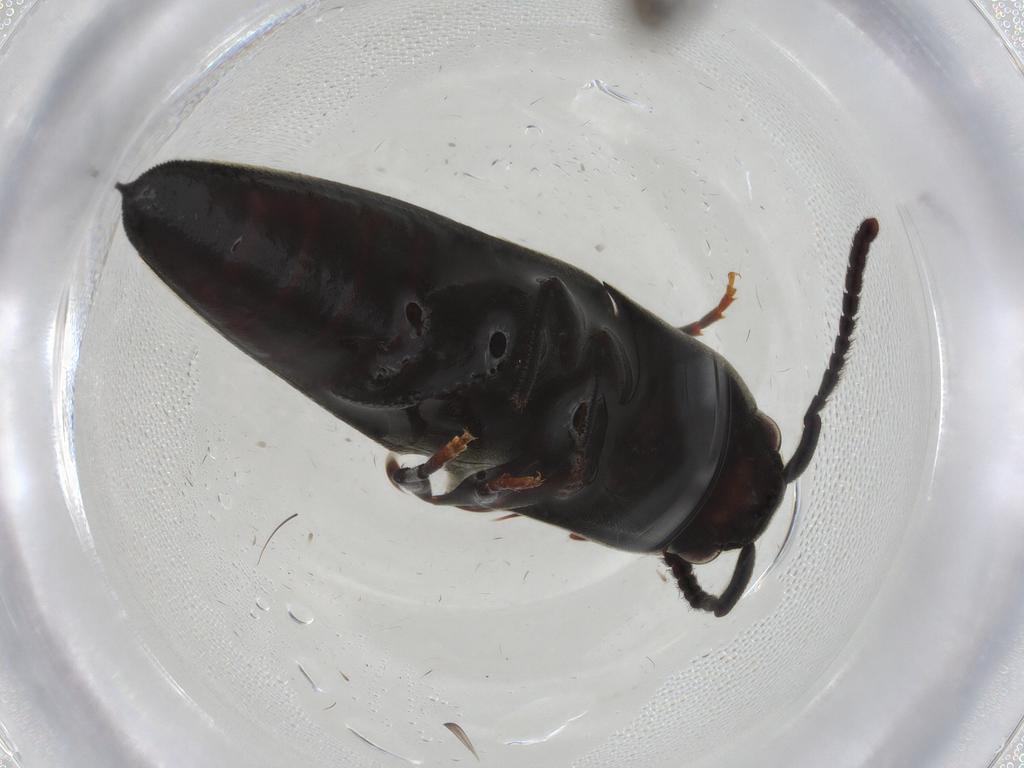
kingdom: Animalia
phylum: Arthropoda
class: Insecta
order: Coleoptera
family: Eucnemidae
